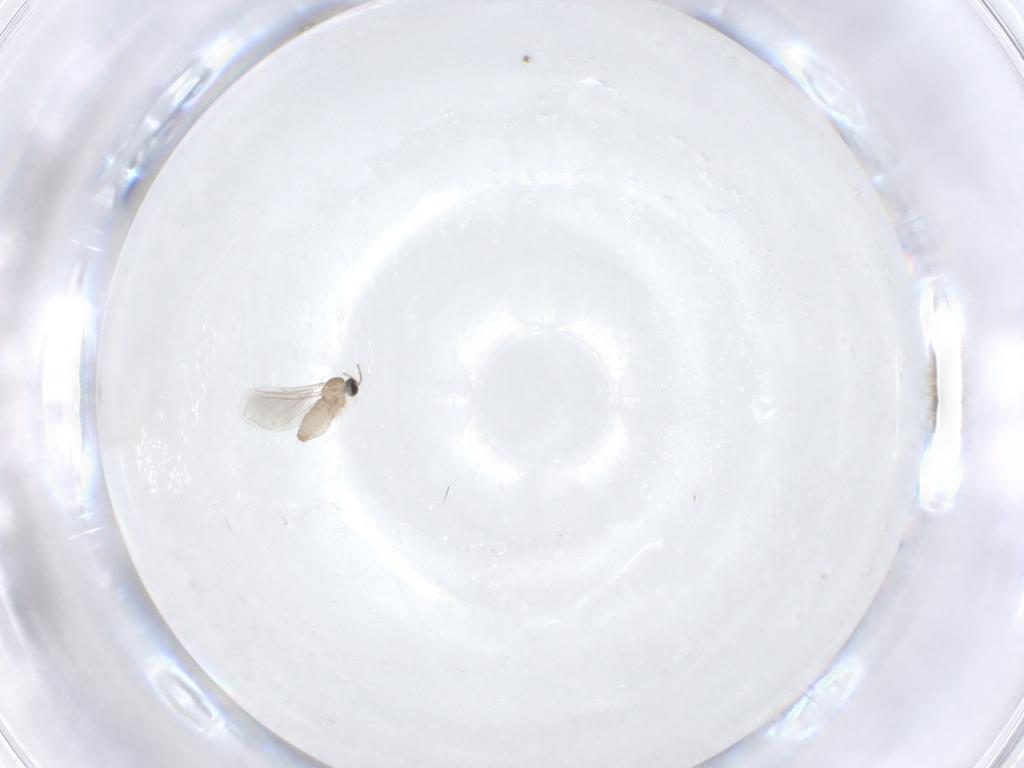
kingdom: Animalia
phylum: Arthropoda
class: Insecta
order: Diptera
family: Cecidomyiidae
